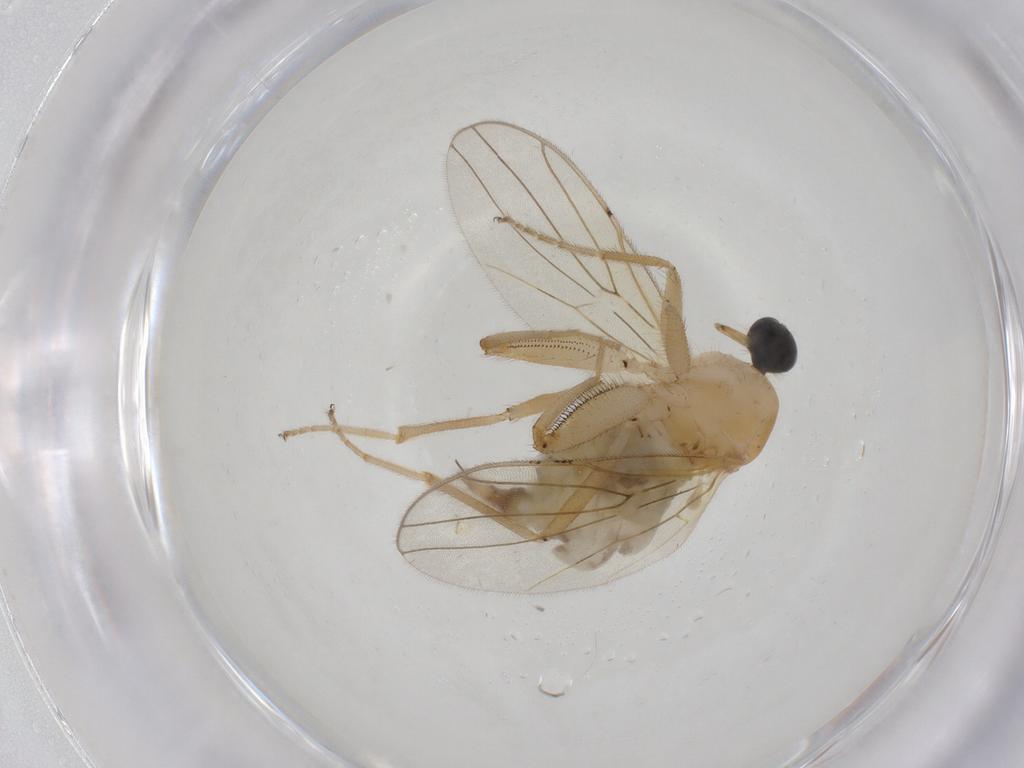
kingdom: Animalia
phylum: Arthropoda
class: Insecta
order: Diptera
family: Hybotidae
